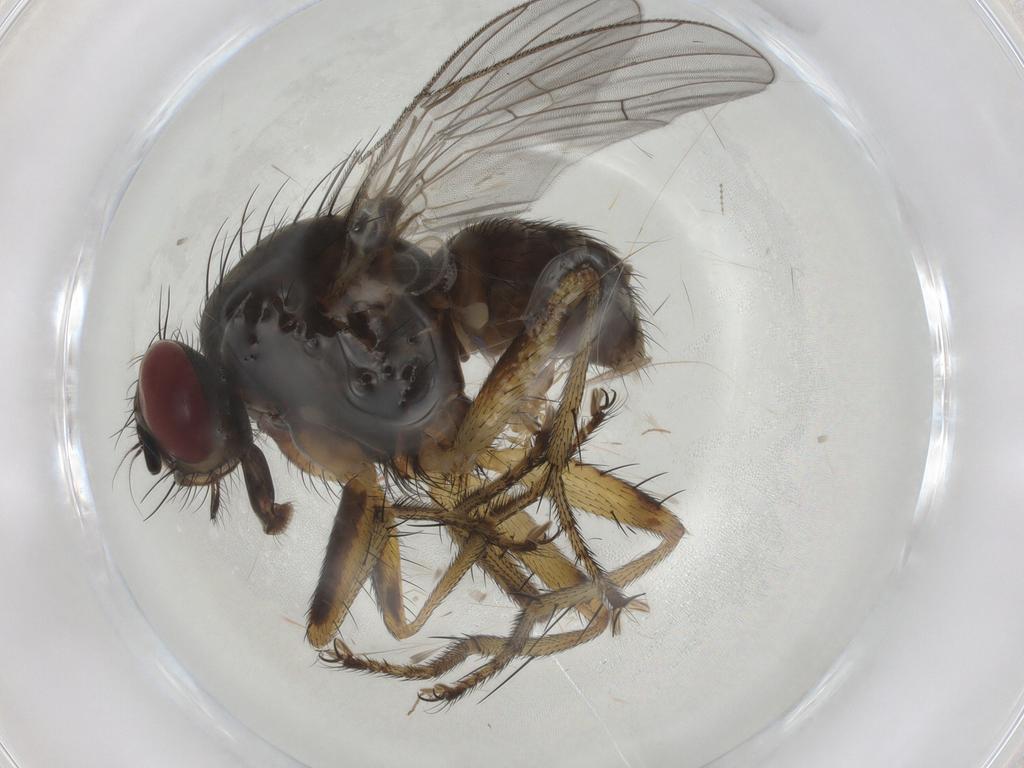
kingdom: Animalia
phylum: Arthropoda
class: Insecta
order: Diptera
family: Muscidae
